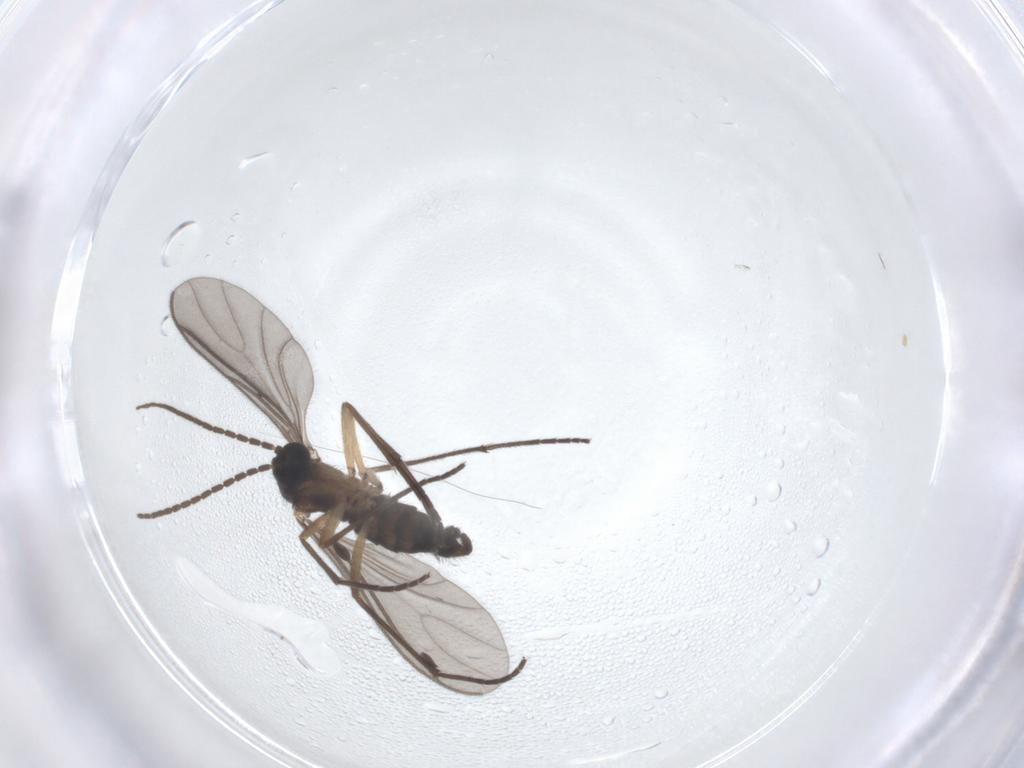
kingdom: Animalia
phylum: Arthropoda
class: Insecta
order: Diptera
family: Sciaridae
